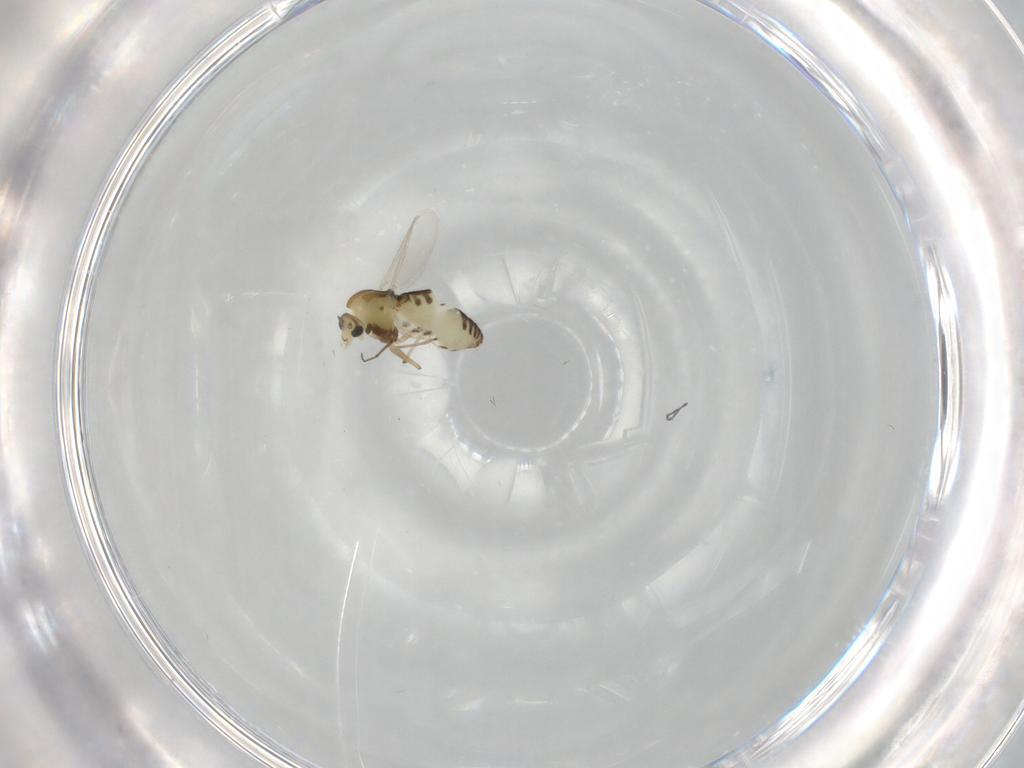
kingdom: Animalia
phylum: Arthropoda
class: Insecta
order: Diptera
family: Chironomidae
